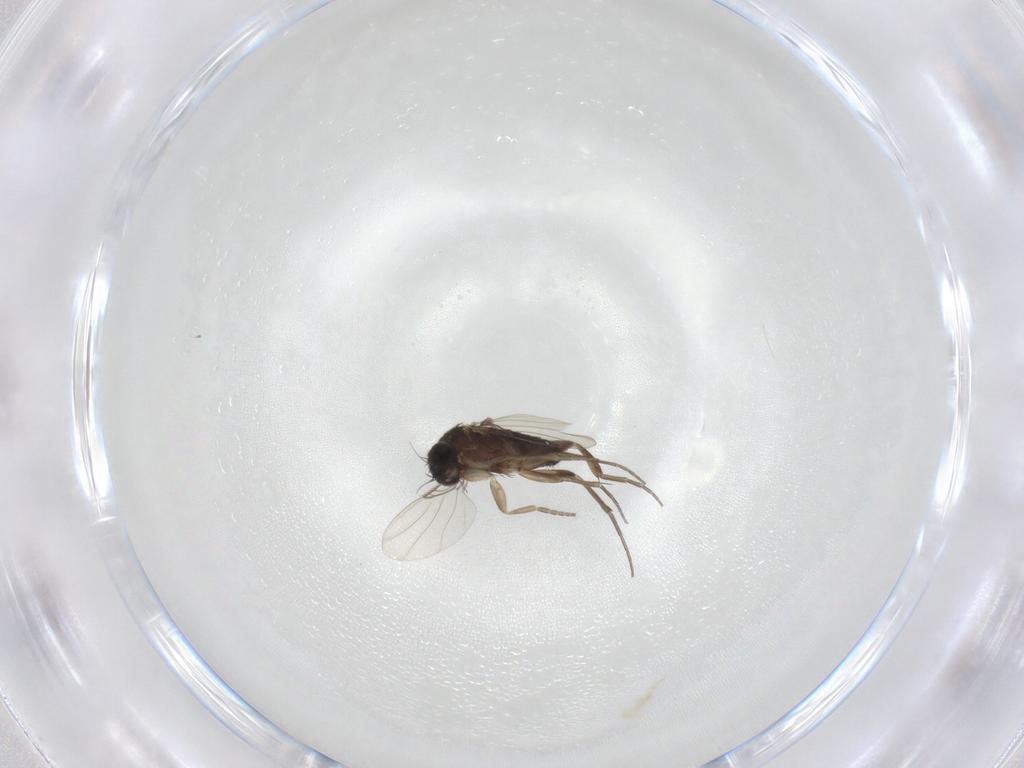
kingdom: Animalia
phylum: Arthropoda
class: Insecta
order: Diptera
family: Phoridae
